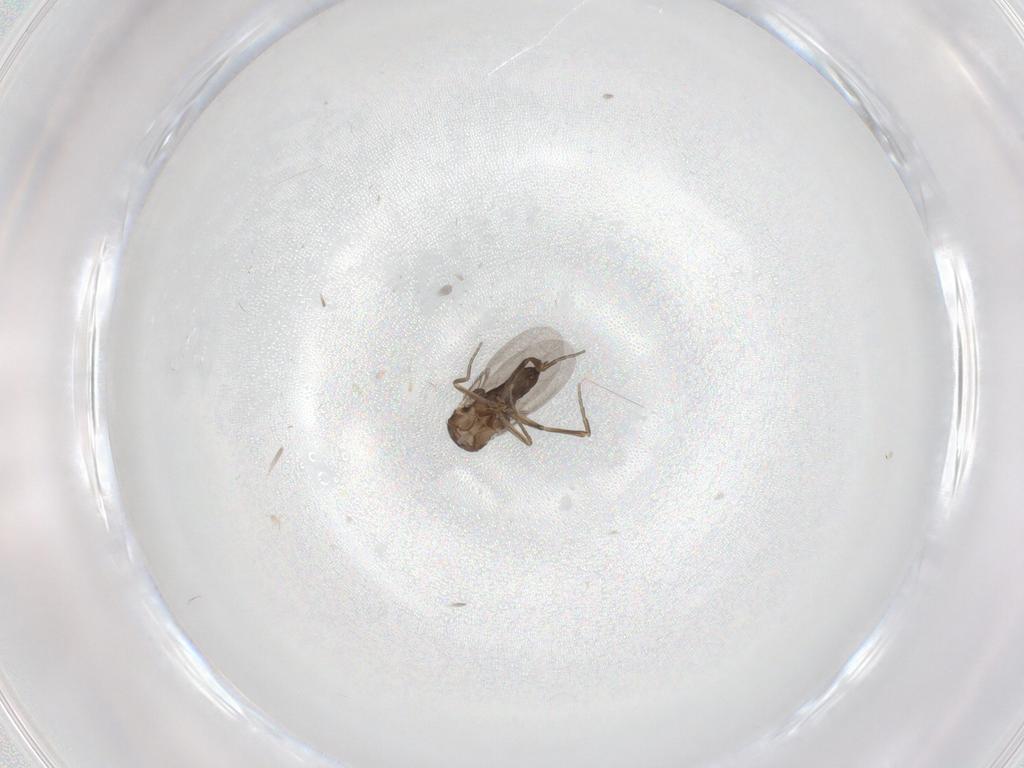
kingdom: Animalia
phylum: Arthropoda
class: Insecta
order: Diptera
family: Phoridae
